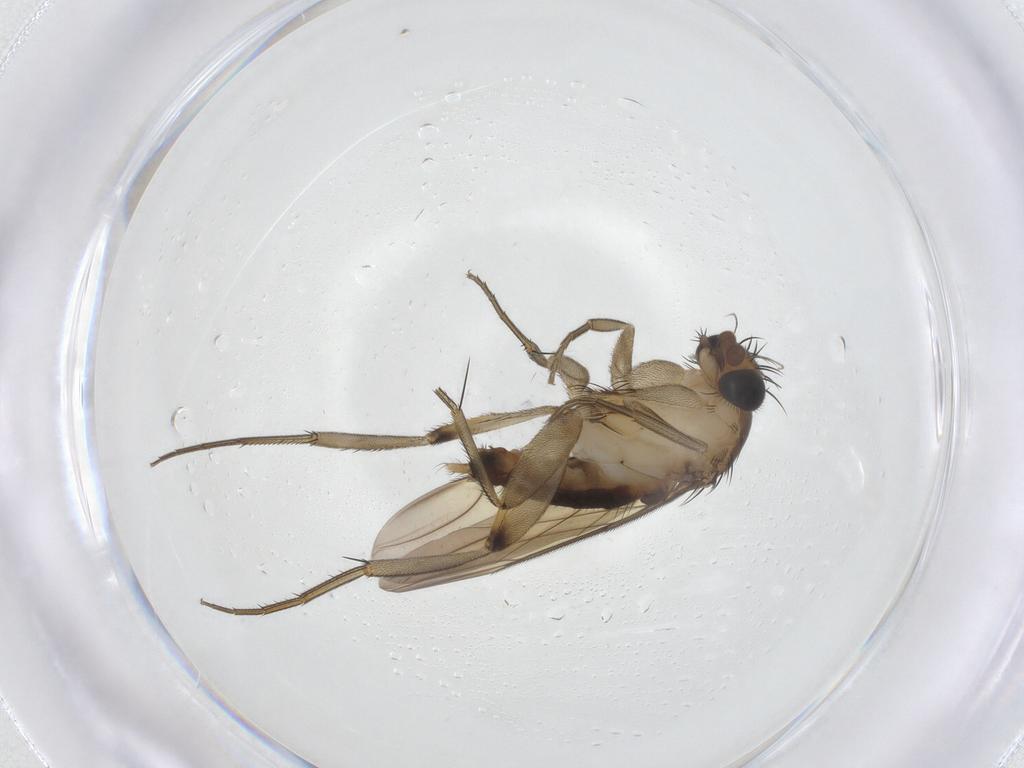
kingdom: Animalia
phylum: Arthropoda
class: Insecta
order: Diptera
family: Phoridae
